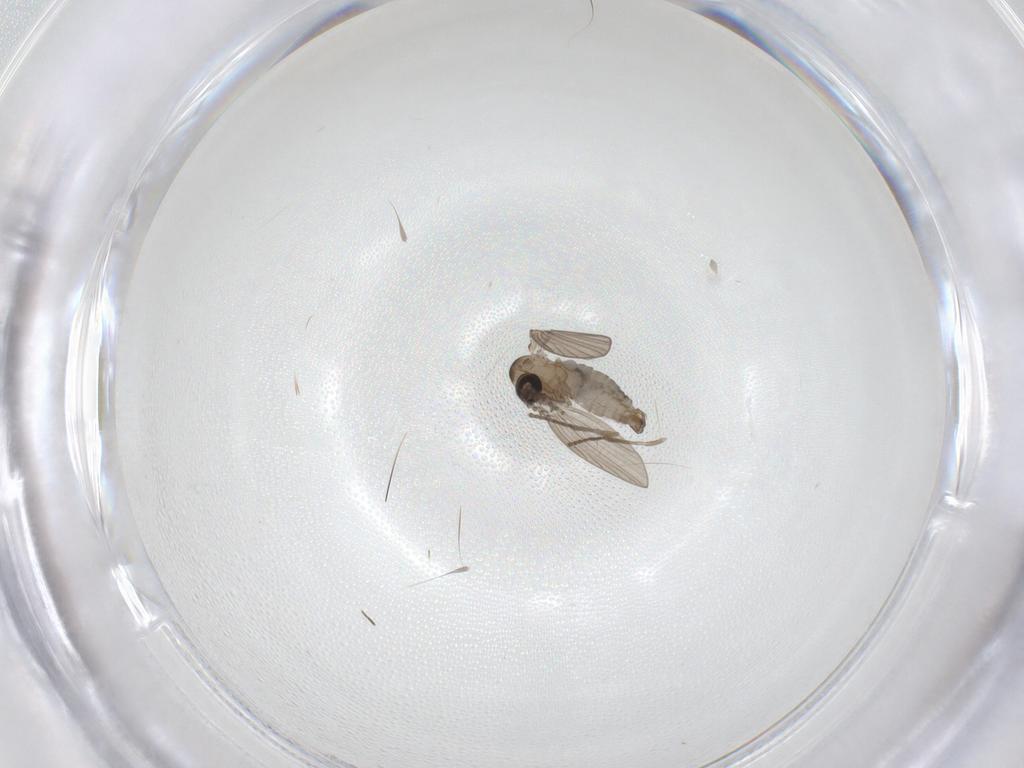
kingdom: Animalia
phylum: Arthropoda
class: Insecta
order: Diptera
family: Psychodidae
